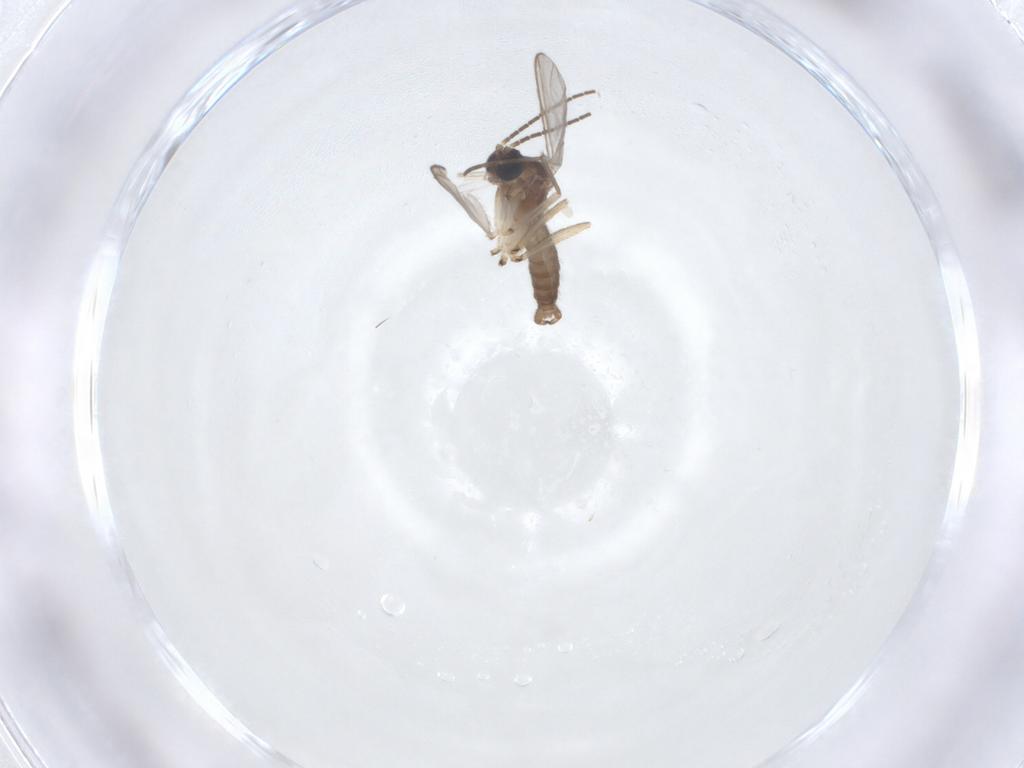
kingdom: Animalia
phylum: Arthropoda
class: Insecta
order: Diptera
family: Sciaridae
